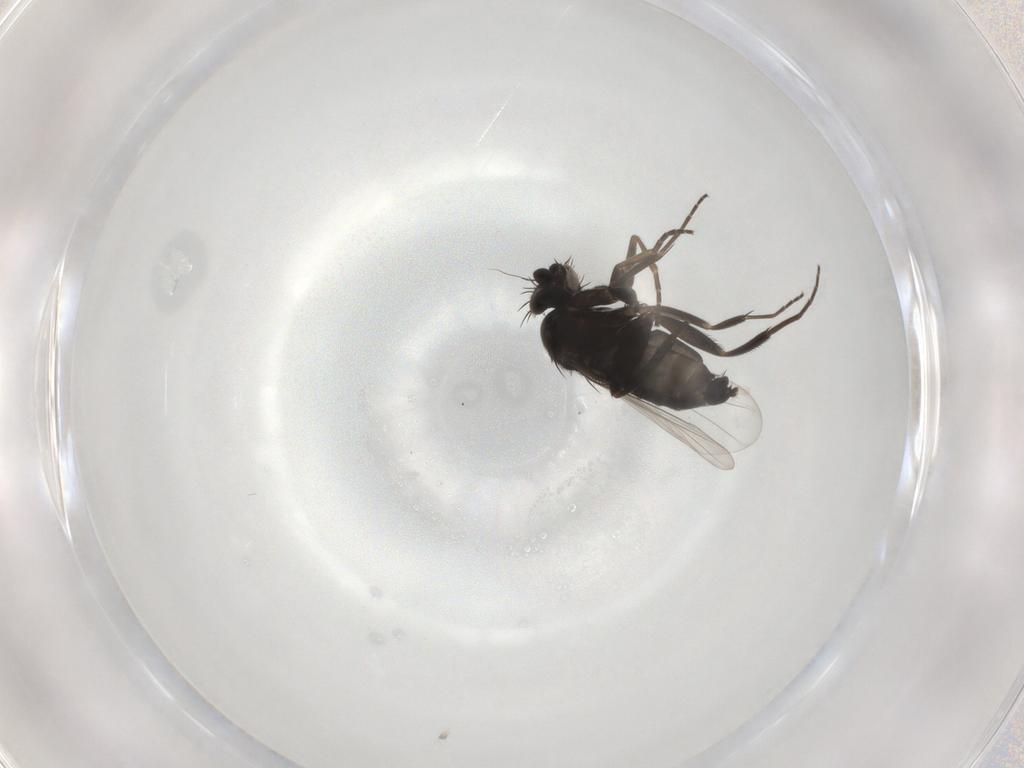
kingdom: Animalia
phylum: Arthropoda
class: Insecta
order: Diptera
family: Phoridae
